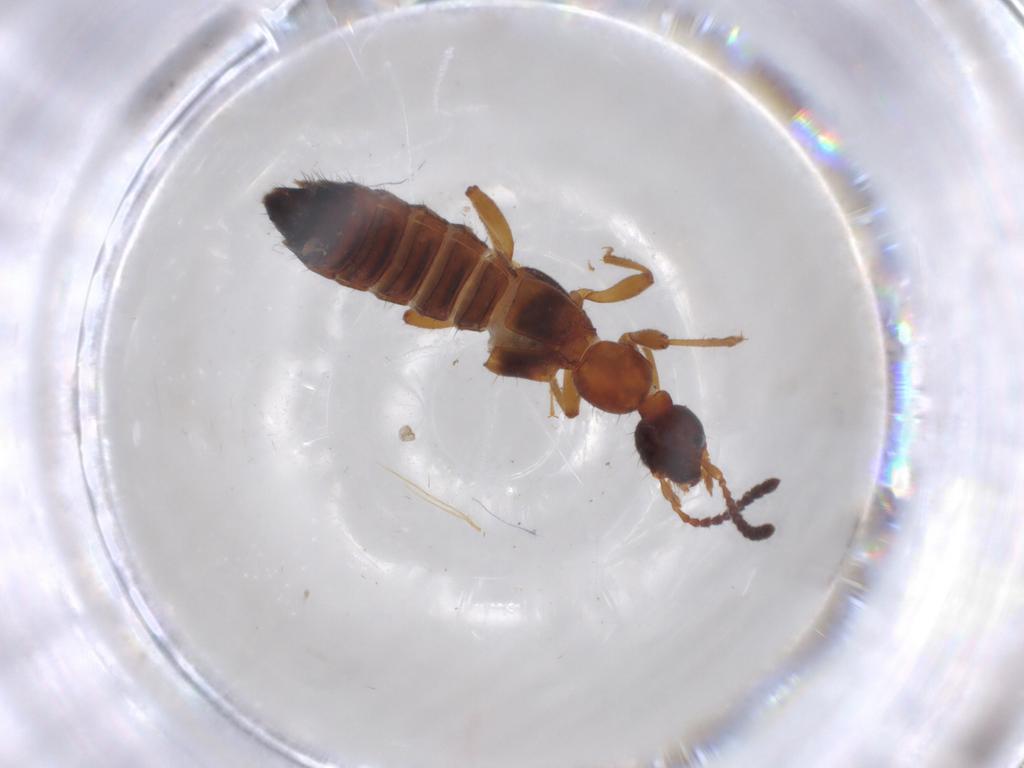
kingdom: Animalia
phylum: Arthropoda
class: Insecta
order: Coleoptera
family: Staphylinidae
